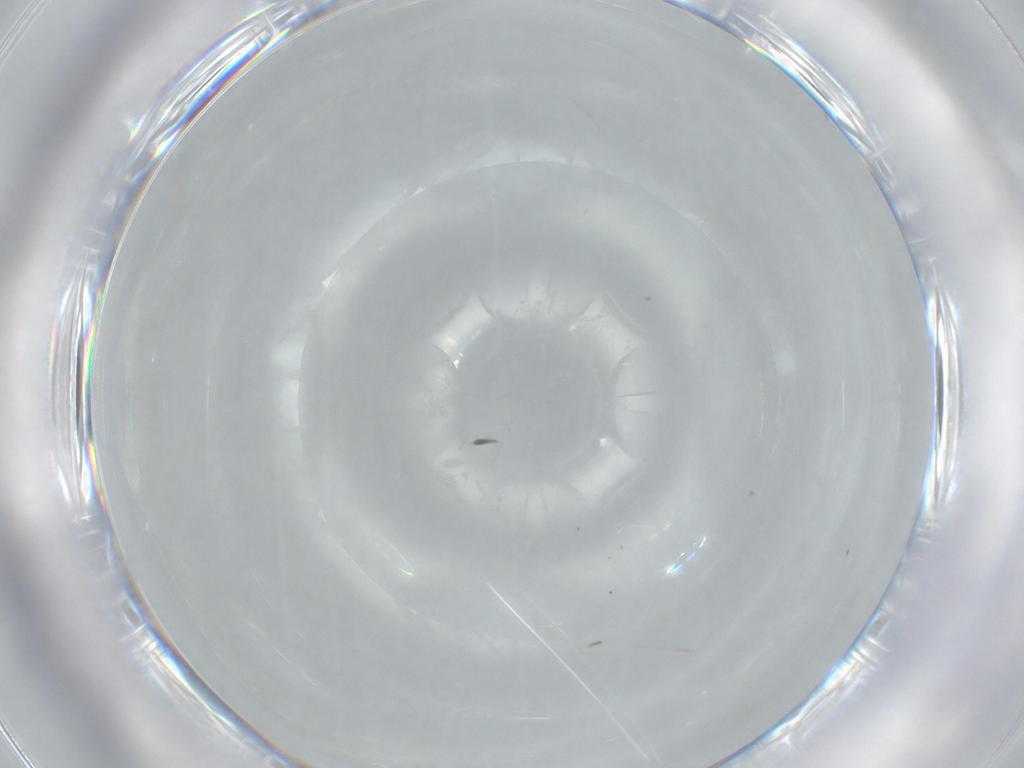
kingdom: Animalia
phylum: Arthropoda
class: Insecta
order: Diptera
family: Chironomidae
